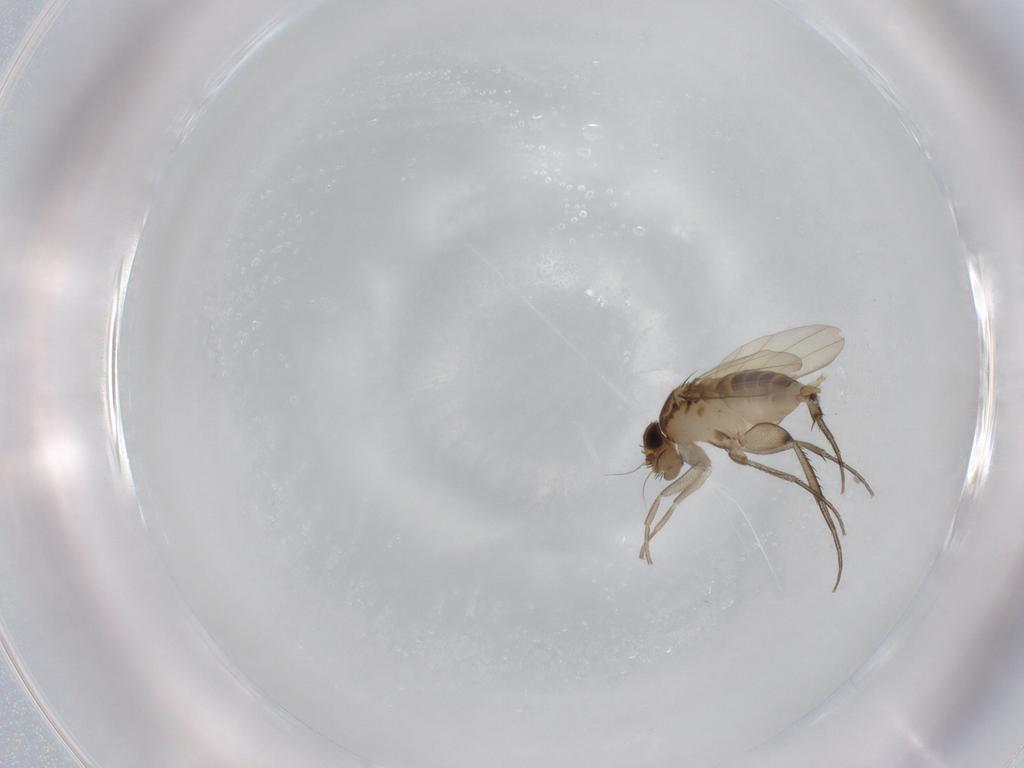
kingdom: Animalia
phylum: Arthropoda
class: Insecta
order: Diptera
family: Phoridae
